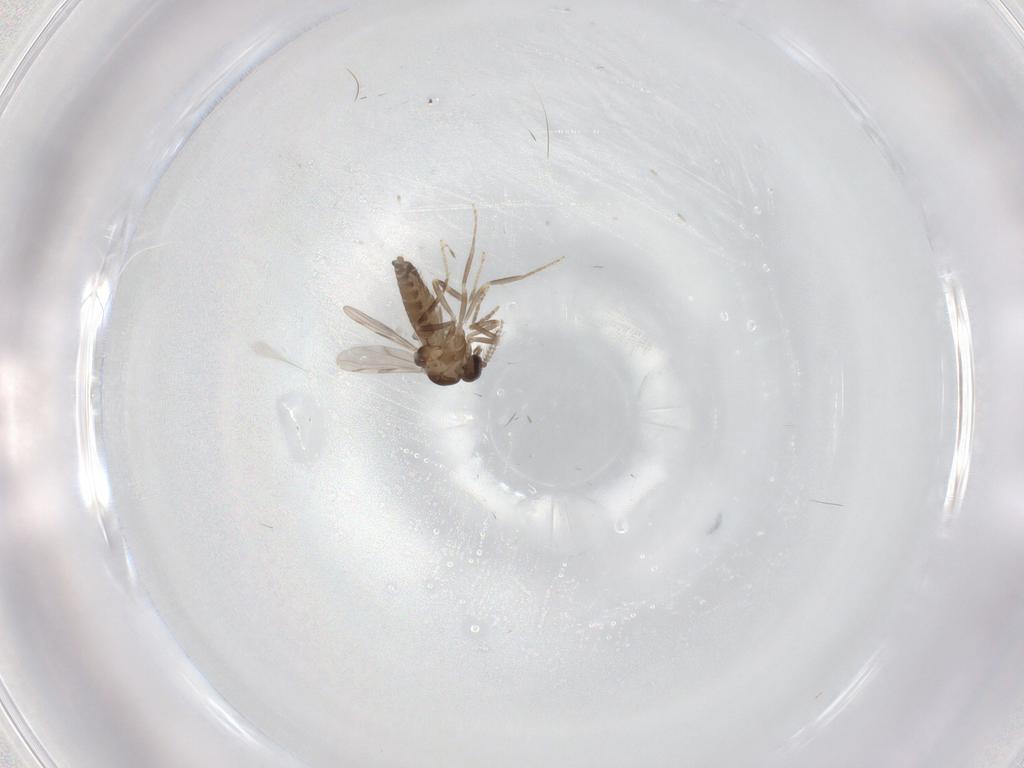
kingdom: Animalia
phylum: Arthropoda
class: Insecta
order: Diptera
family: Ceratopogonidae
